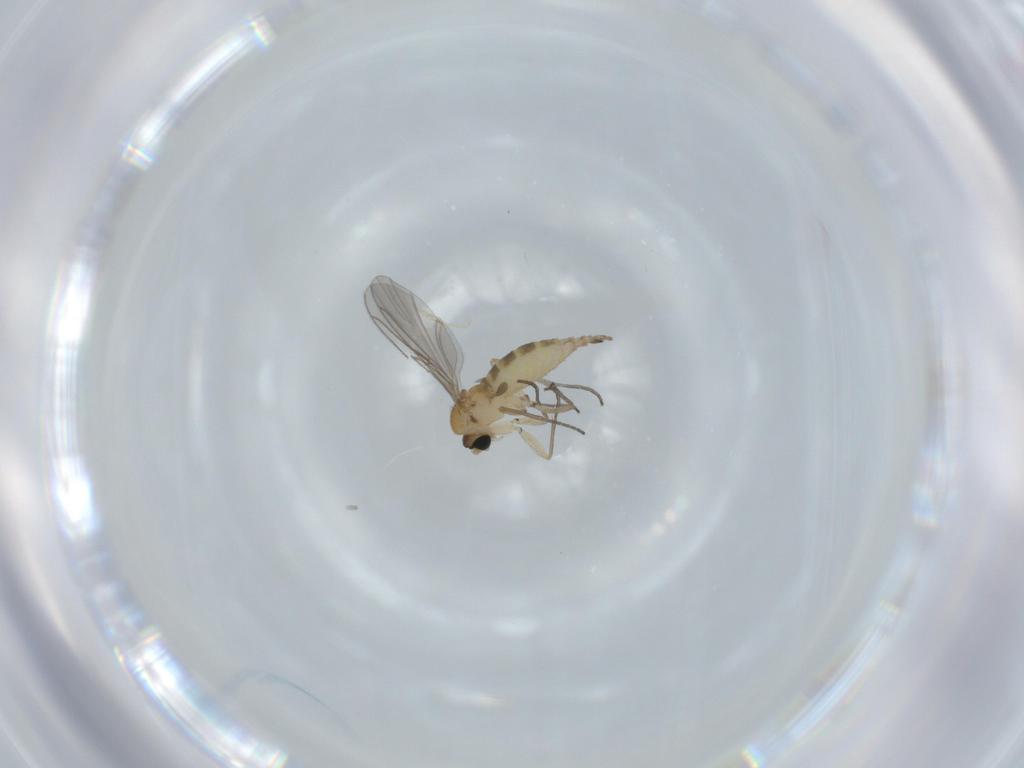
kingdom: Animalia
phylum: Arthropoda
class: Insecta
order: Diptera
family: Sciaridae
